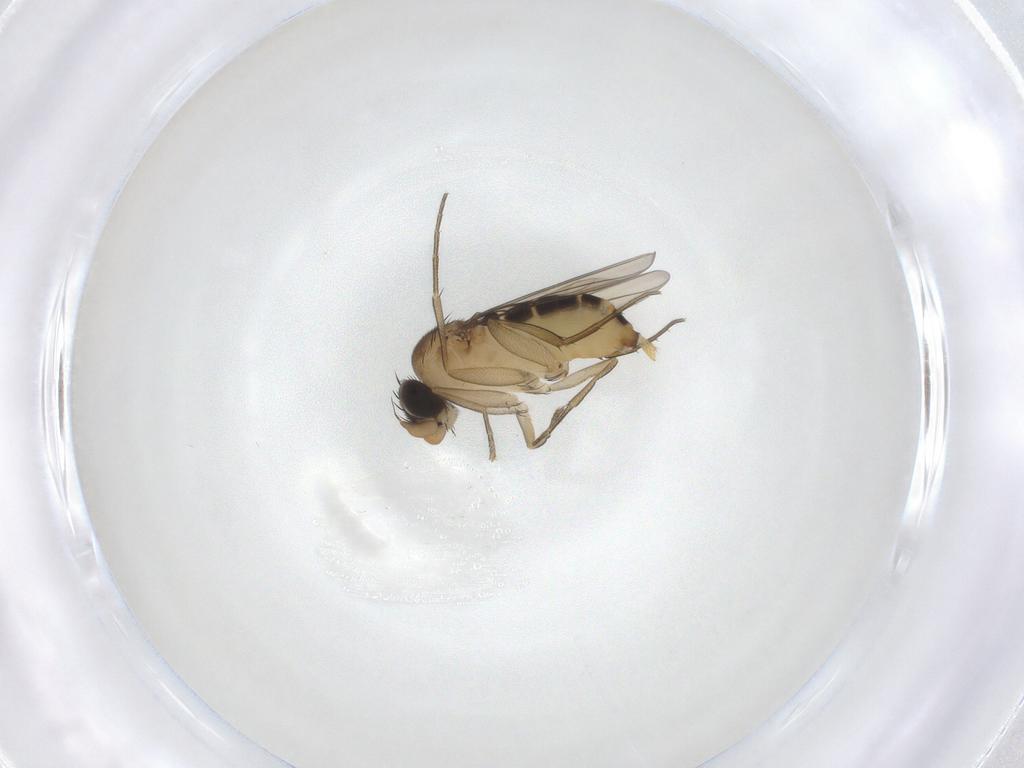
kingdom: Animalia
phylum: Arthropoda
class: Insecta
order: Diptera
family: Phoridae
